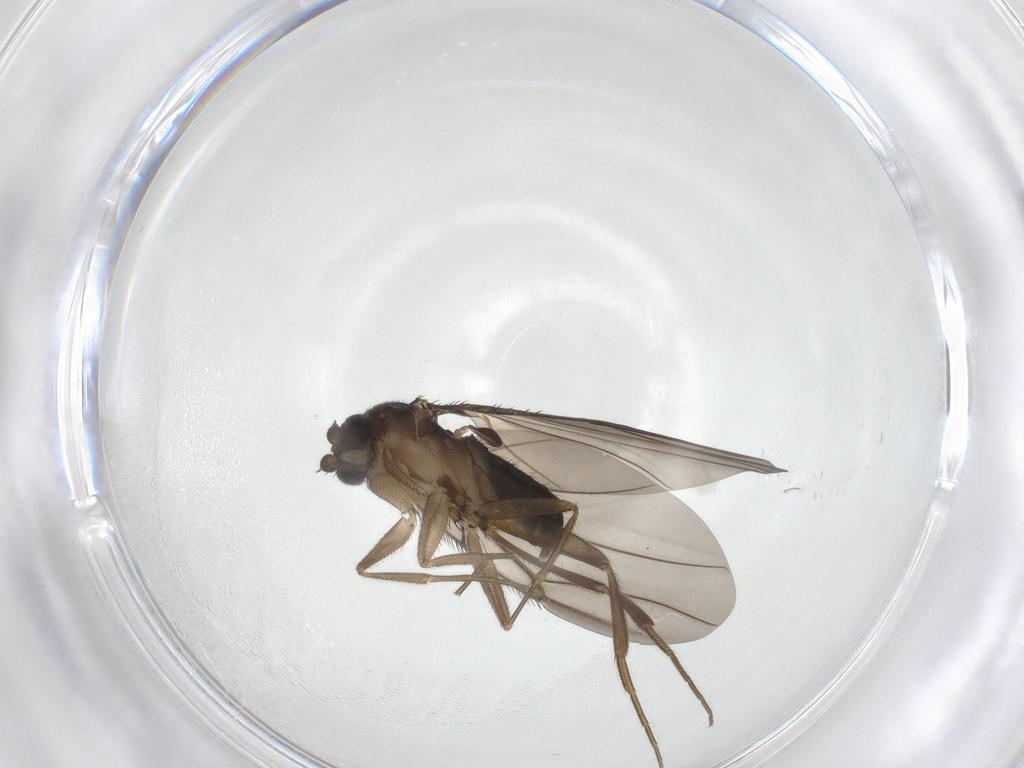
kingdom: Animalia
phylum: Arthropoda
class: Insecta
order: Diptera
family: Phoridae
